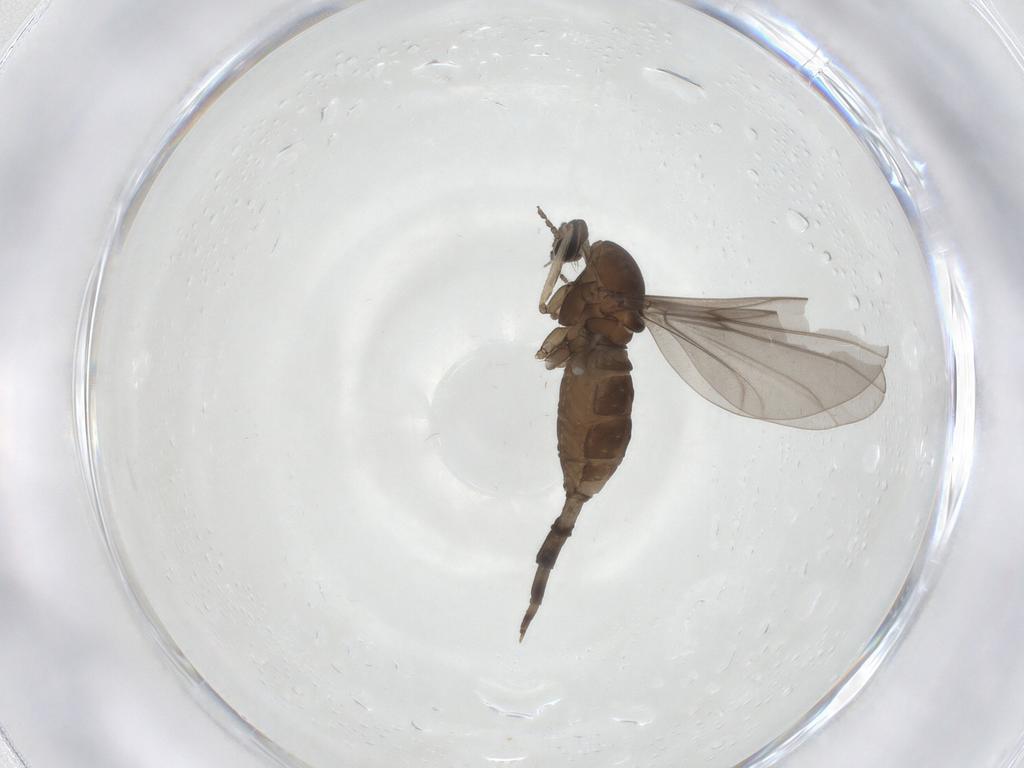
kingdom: Animalia
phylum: Arthropoda
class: Insecta
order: Diptera
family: Cecidomyiidae
